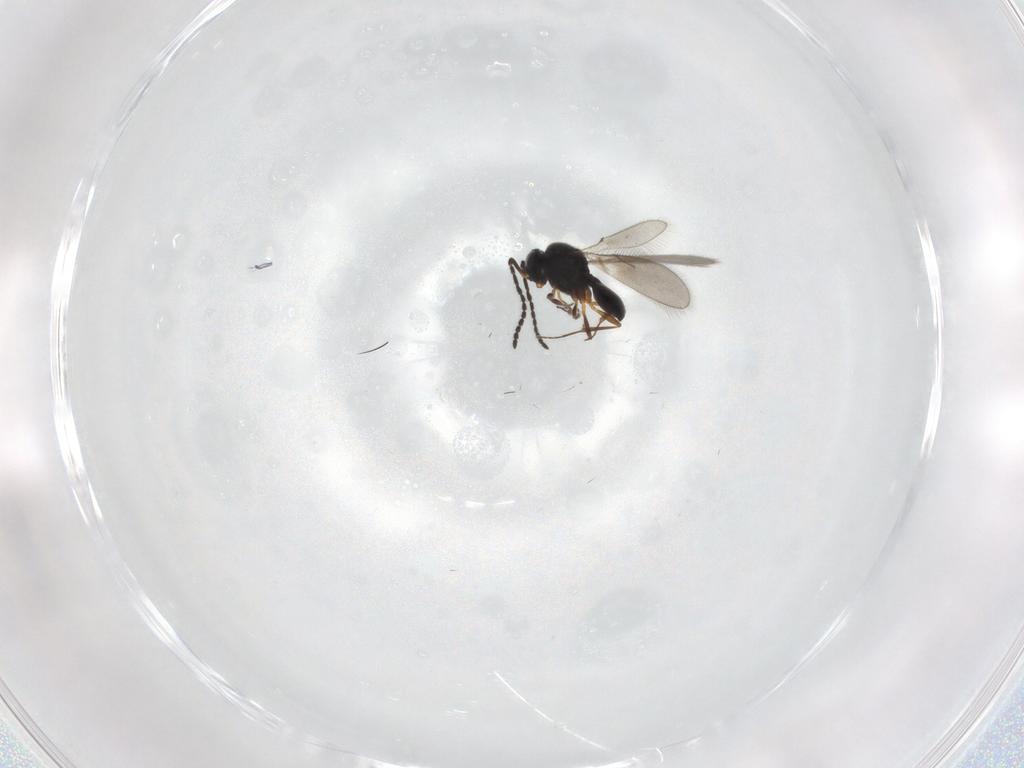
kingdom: Animalia
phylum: Arthropoda
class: Insecta
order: Hymenoptera
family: Scelionidae
